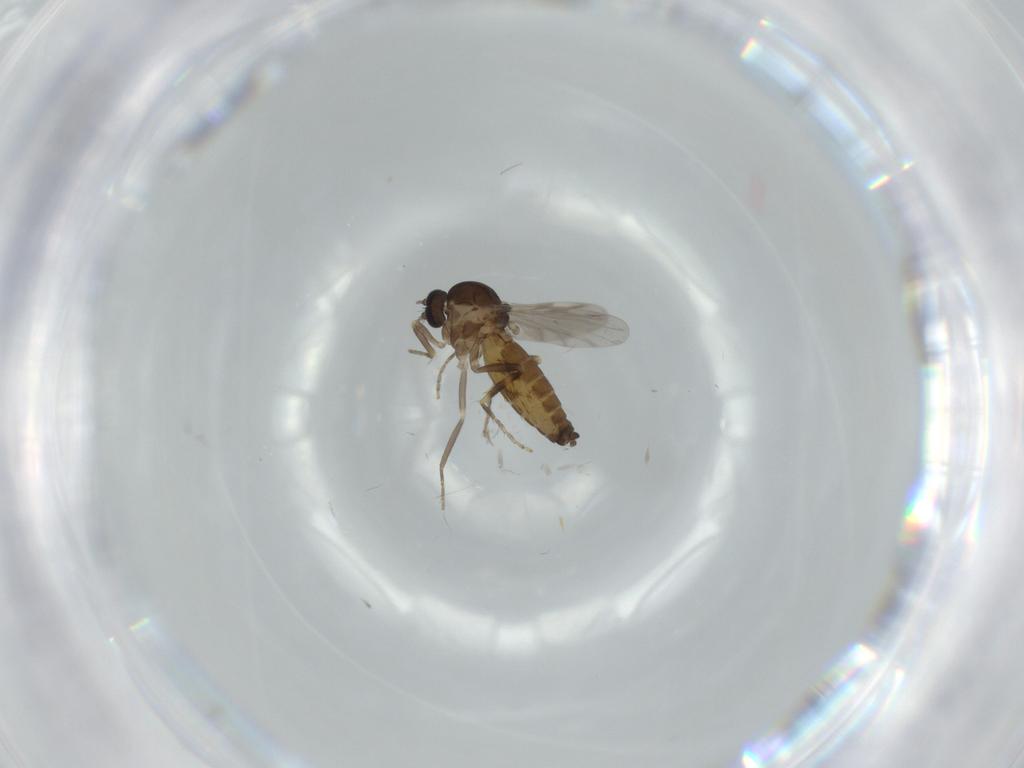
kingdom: Animalia
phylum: Arthropoda
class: Insecta
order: Diptera
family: Ceratopogonidae
